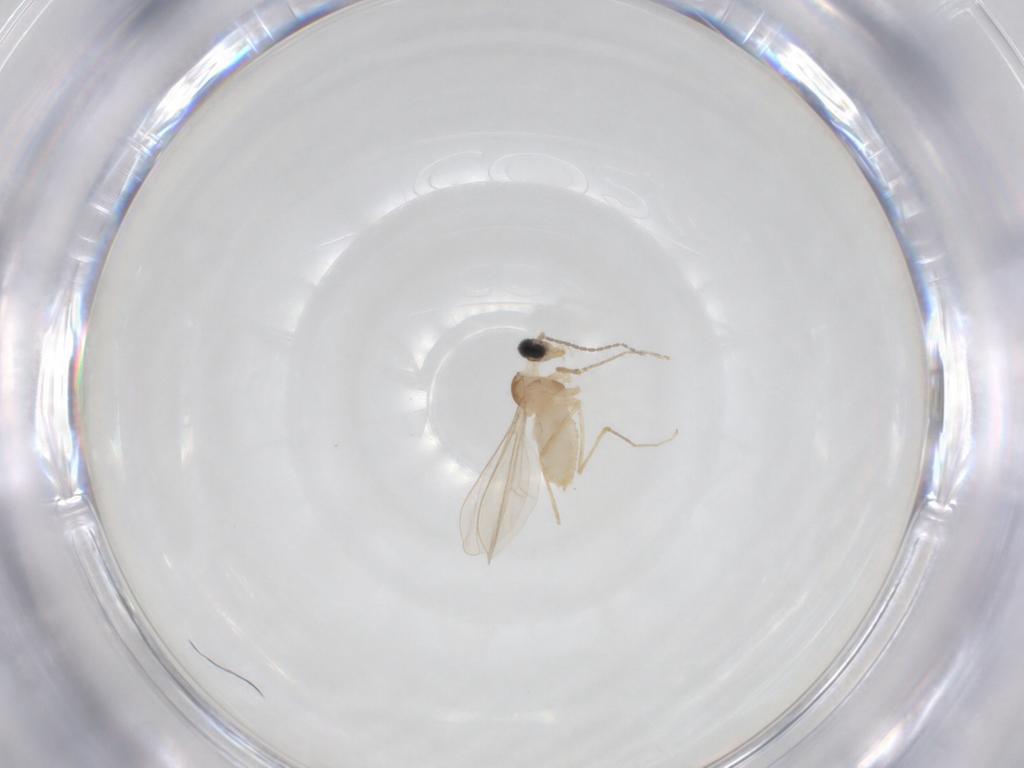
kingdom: Animalia
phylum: Arthropoda
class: Insecta
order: Diptera
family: Cecidomyiidae
